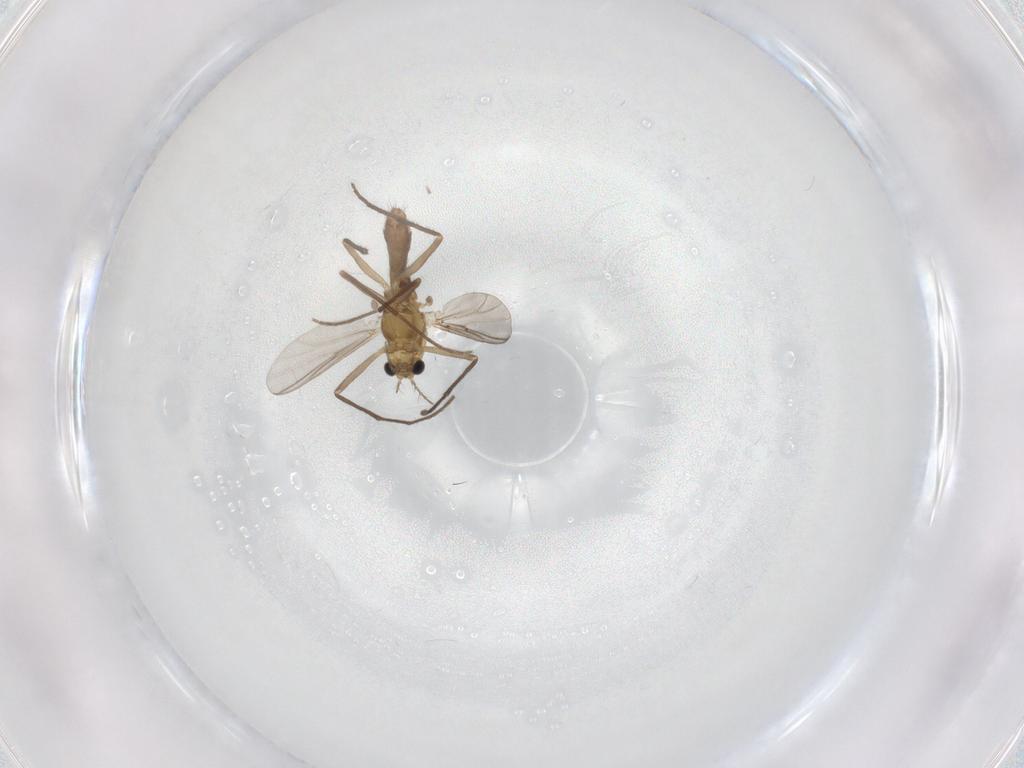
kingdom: Animalia
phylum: Arthropoda
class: Insecta
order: Diptera
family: Chironomidae
